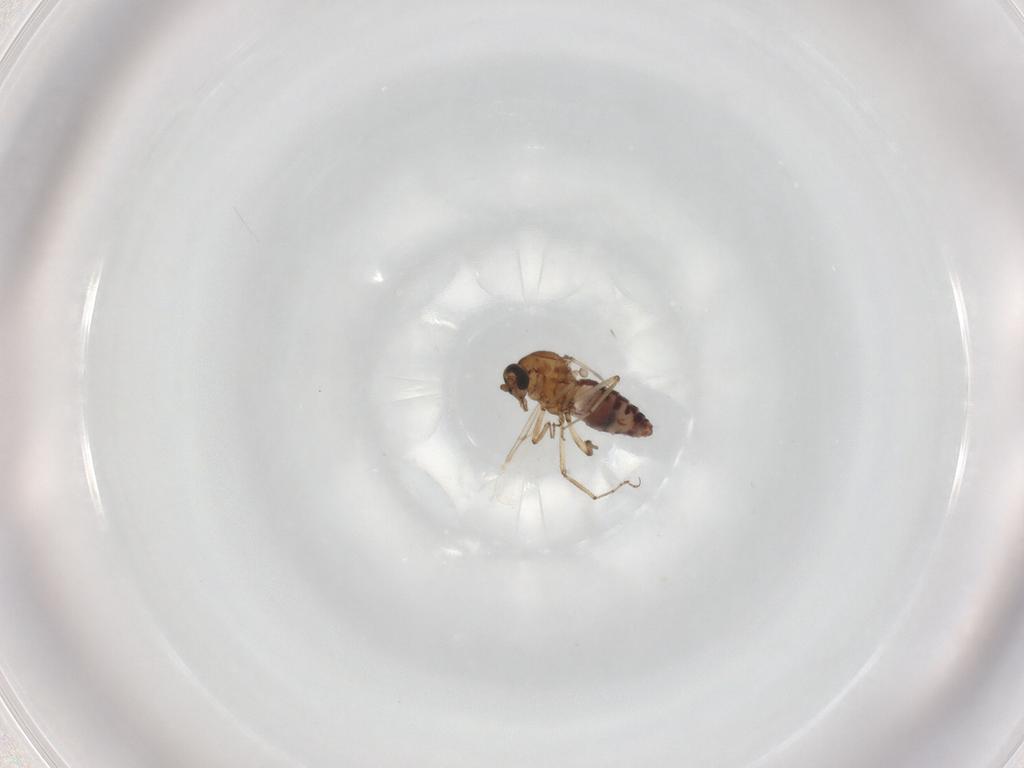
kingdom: Animalia
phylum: Arthropoda
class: Insecta
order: Diptera
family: Ceratopogonidae
